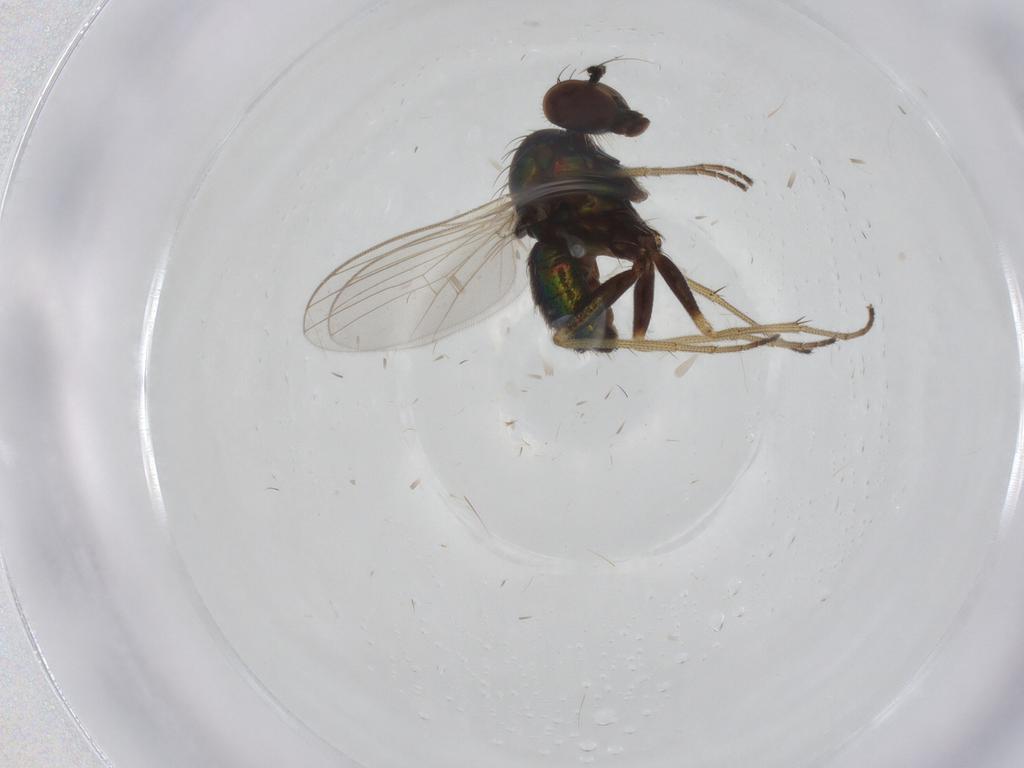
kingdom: Animalia
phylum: Arthropoda
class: Insecta
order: Diptera
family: Dolichopodidae
